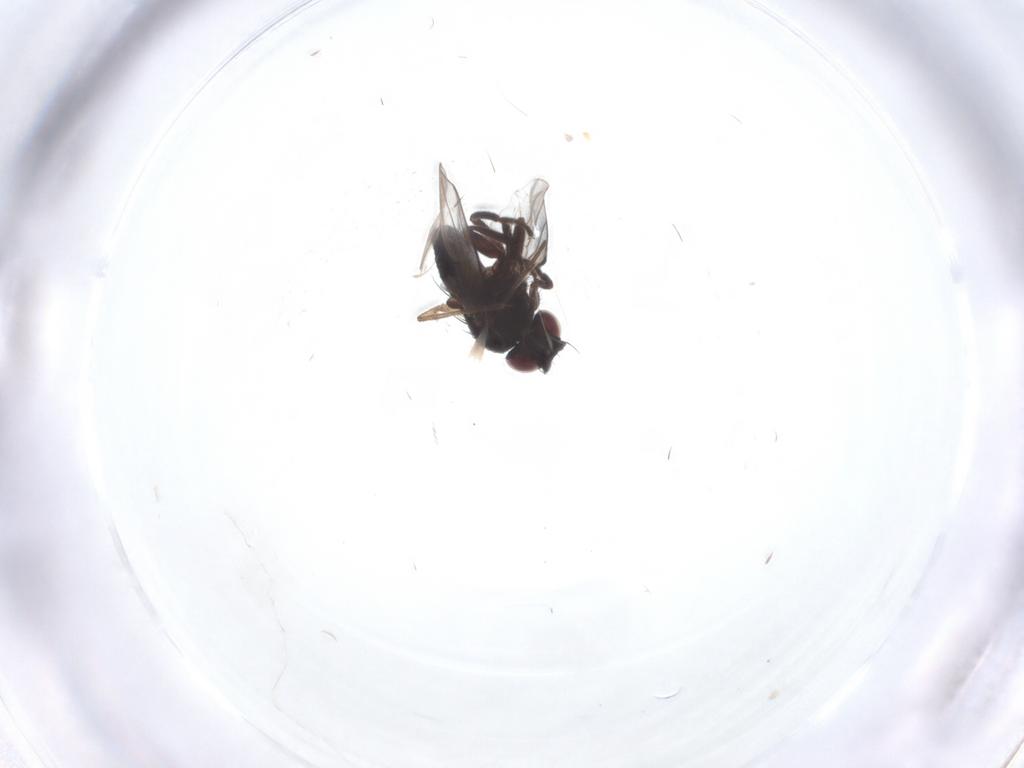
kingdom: Animalia
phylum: Arthropoda
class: Insecta
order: Diptera
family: Milichiidae
